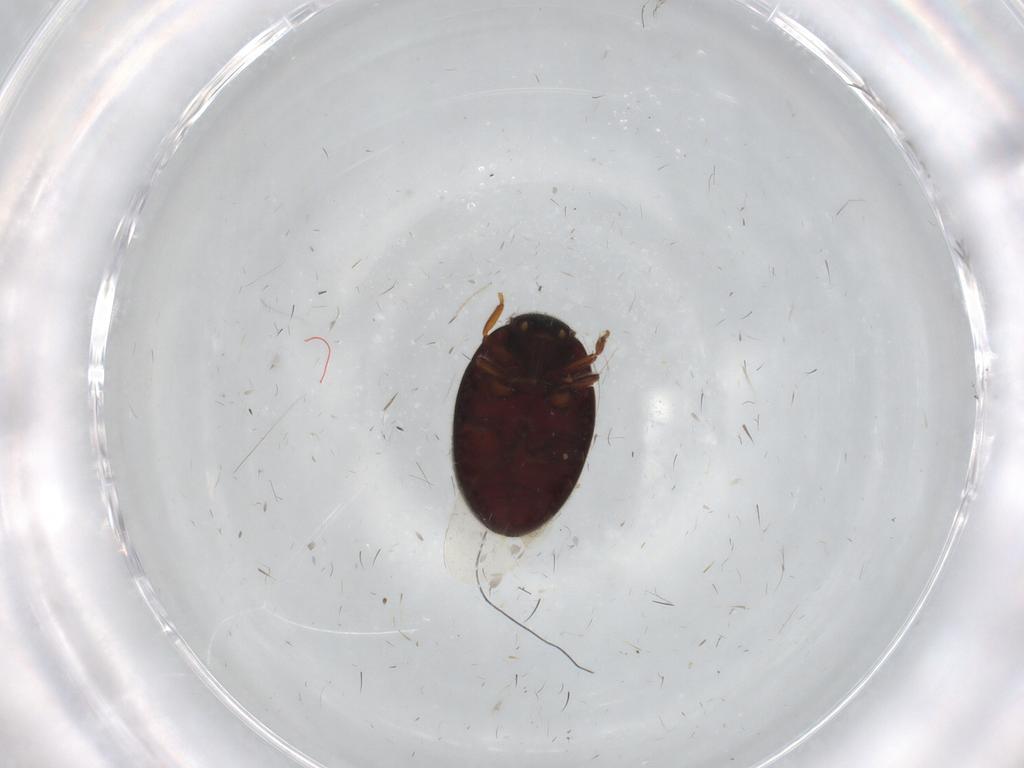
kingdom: Animalia
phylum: Arthropoda
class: Insecta
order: Coleoptera
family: Limnichidae
